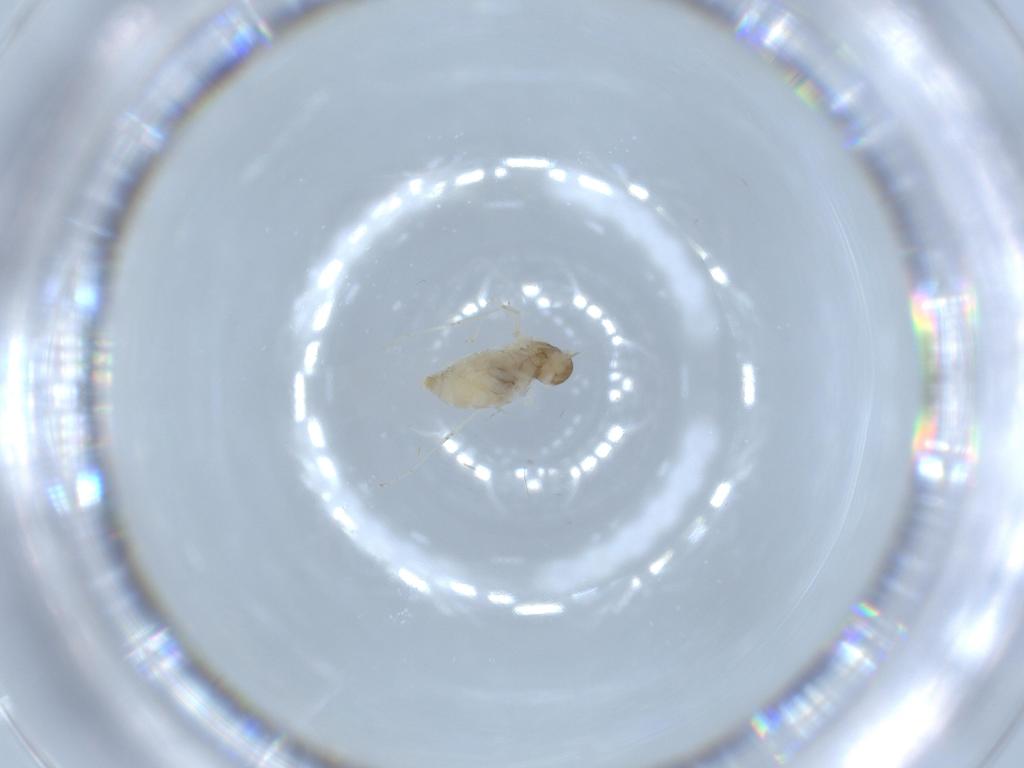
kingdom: Animalia
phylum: Arthropoda
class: Insecta
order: Diptera
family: Cecidomyiidae
